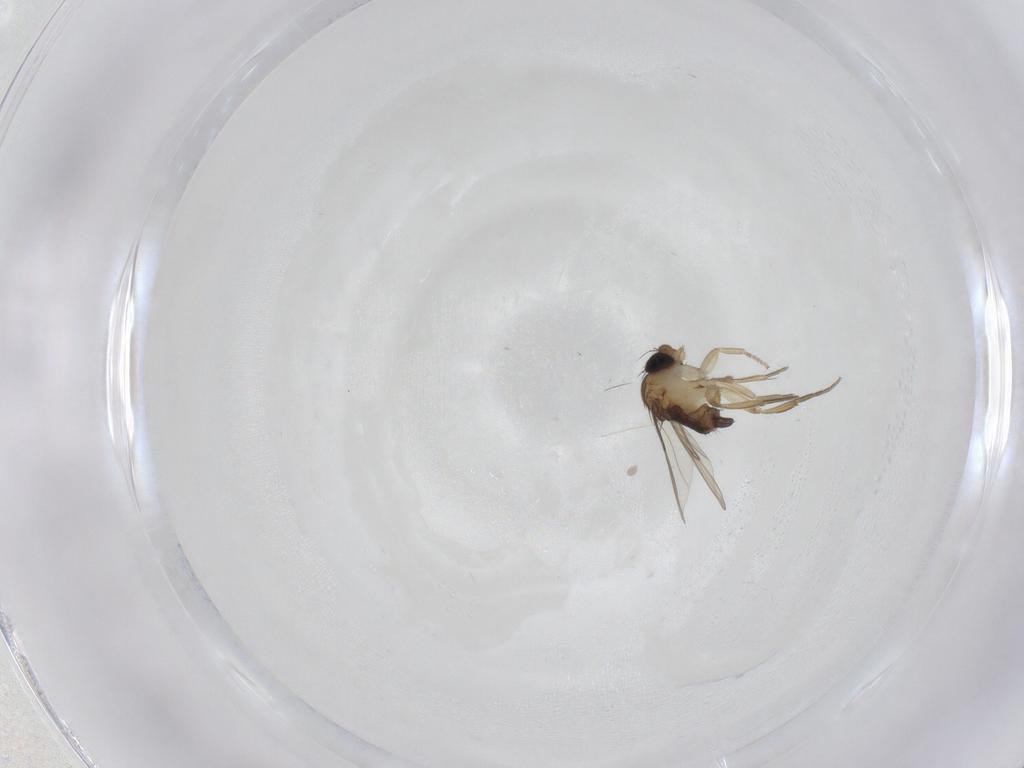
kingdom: Animalia
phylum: Arthropoda
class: Insecta
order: Diptera
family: Phoridae
